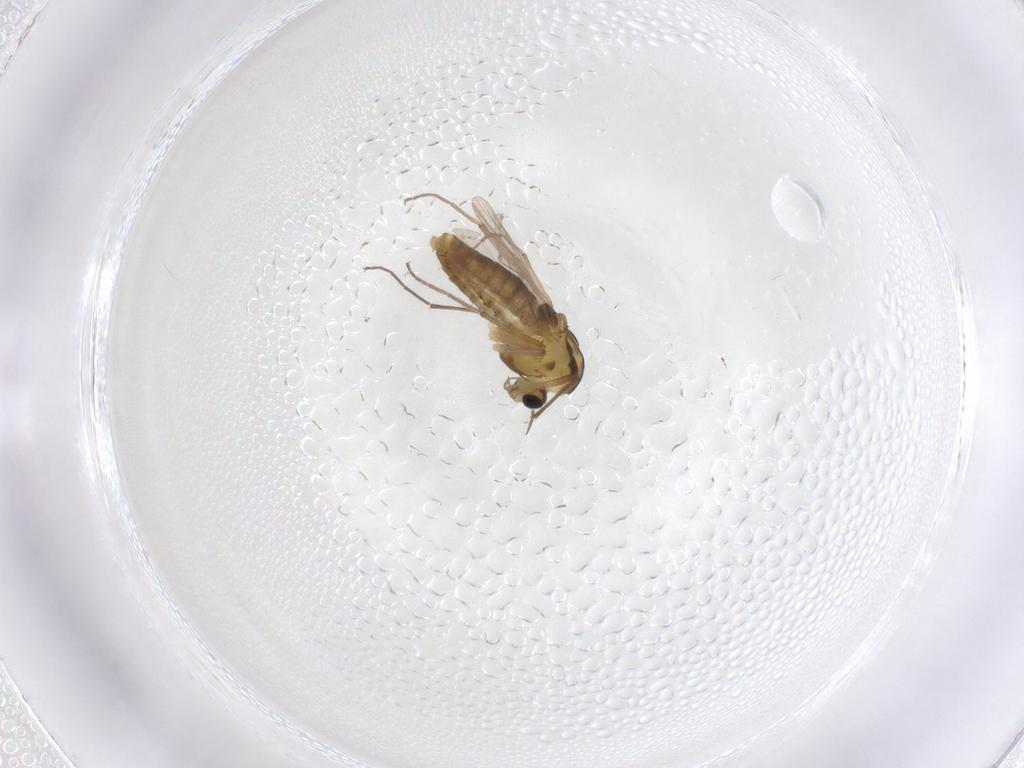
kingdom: Animalia
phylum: Arthropoda
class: Insecta
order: Diptera
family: Chironomidae
